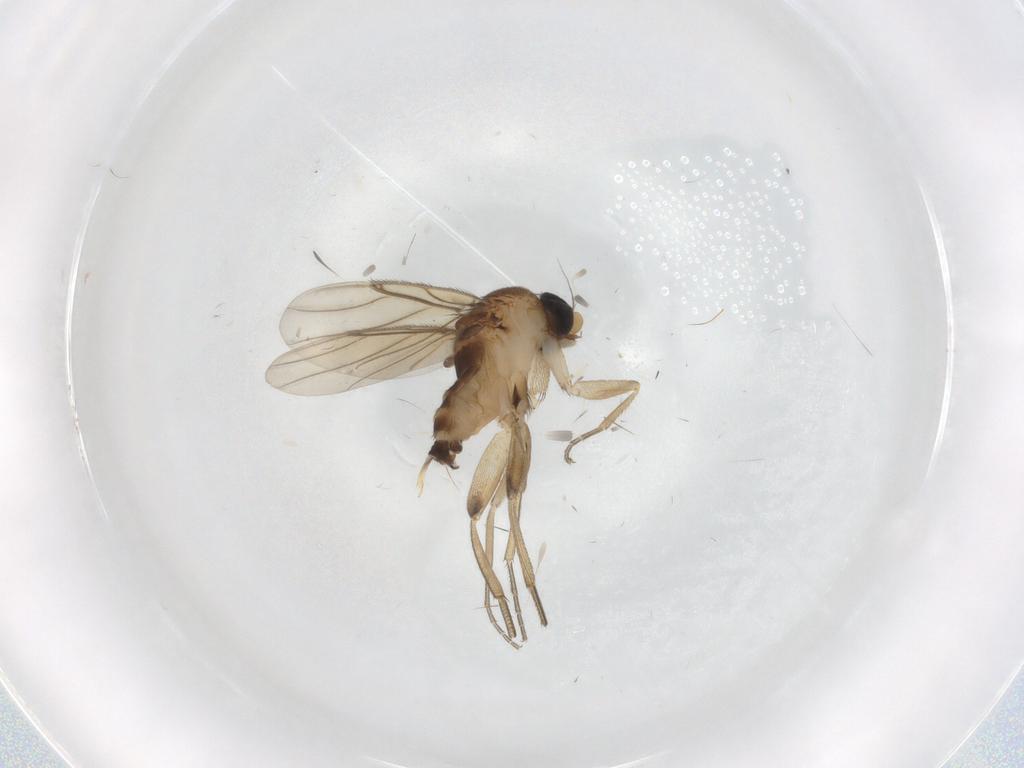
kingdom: Animalia
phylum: Arthropoda
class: Insecta
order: Diptera
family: Phoridae
